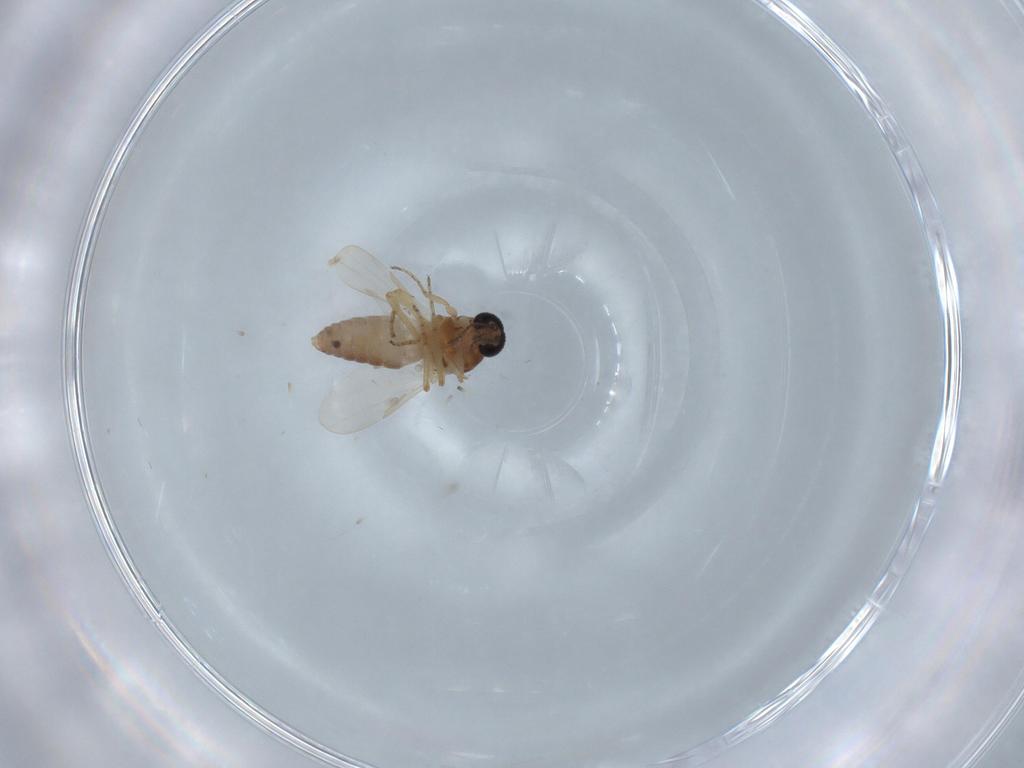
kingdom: Animalia
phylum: Arthropoda
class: Insecta
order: Diptera
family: Ceratopogonidae
